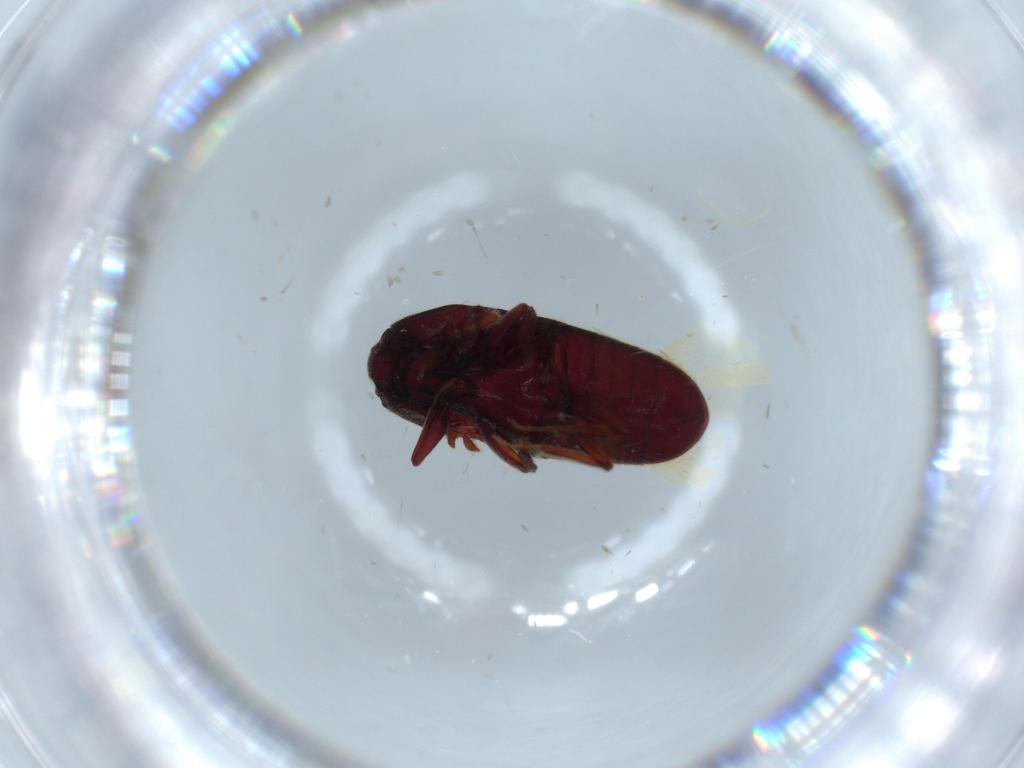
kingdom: Animalia
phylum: Arthropoda
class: Insecta
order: Coleoptera
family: Throscidae
